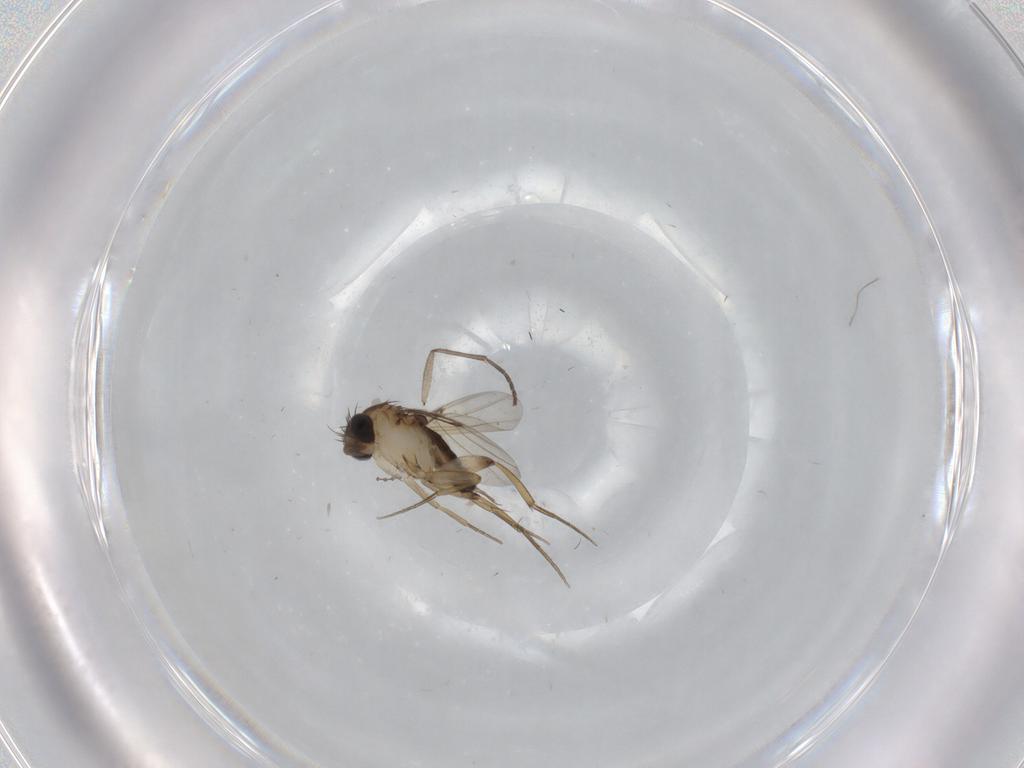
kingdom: Animalia
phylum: Arthropoda
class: Insecta
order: Diptera
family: Phoridae
